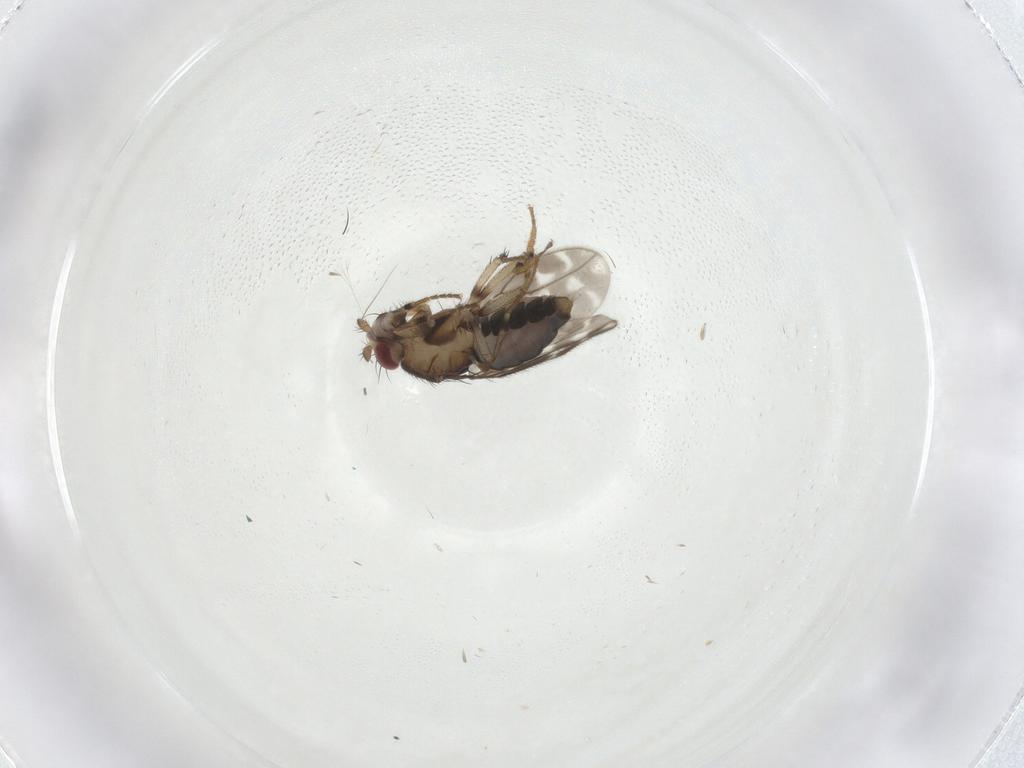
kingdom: Animalia
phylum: Arthropoda
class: Insecta
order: Diptera
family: Sphaeroceridae
